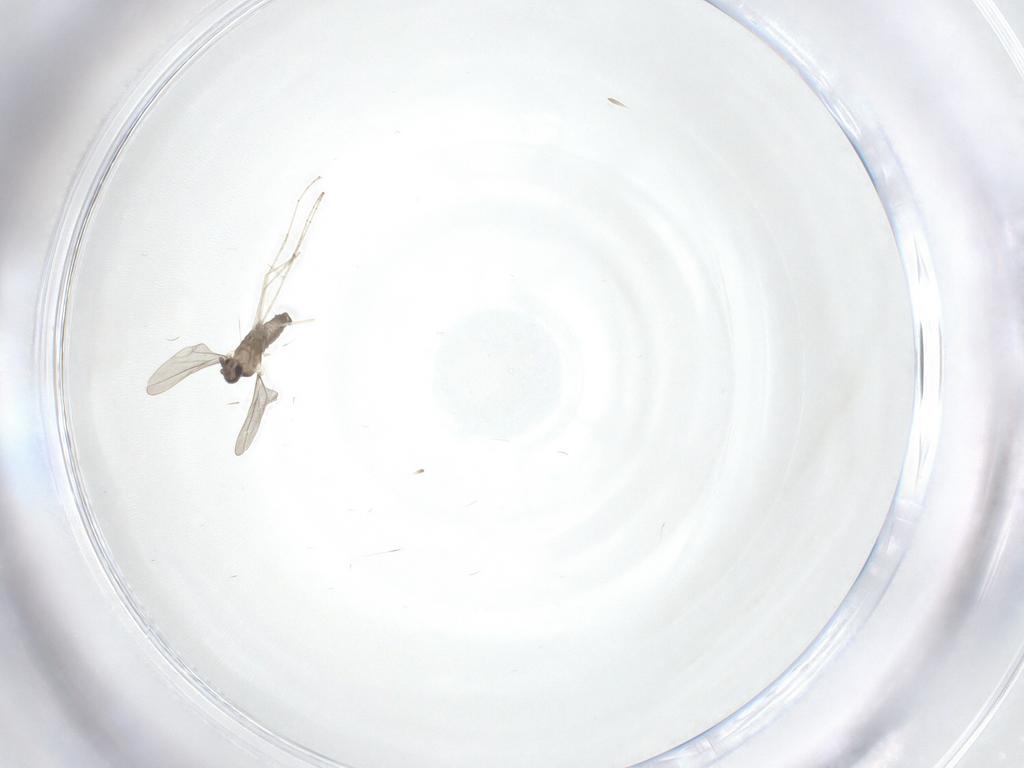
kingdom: Animalia
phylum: Arthropoda
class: Insecta
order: Diptera
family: Cecidomyiidae
